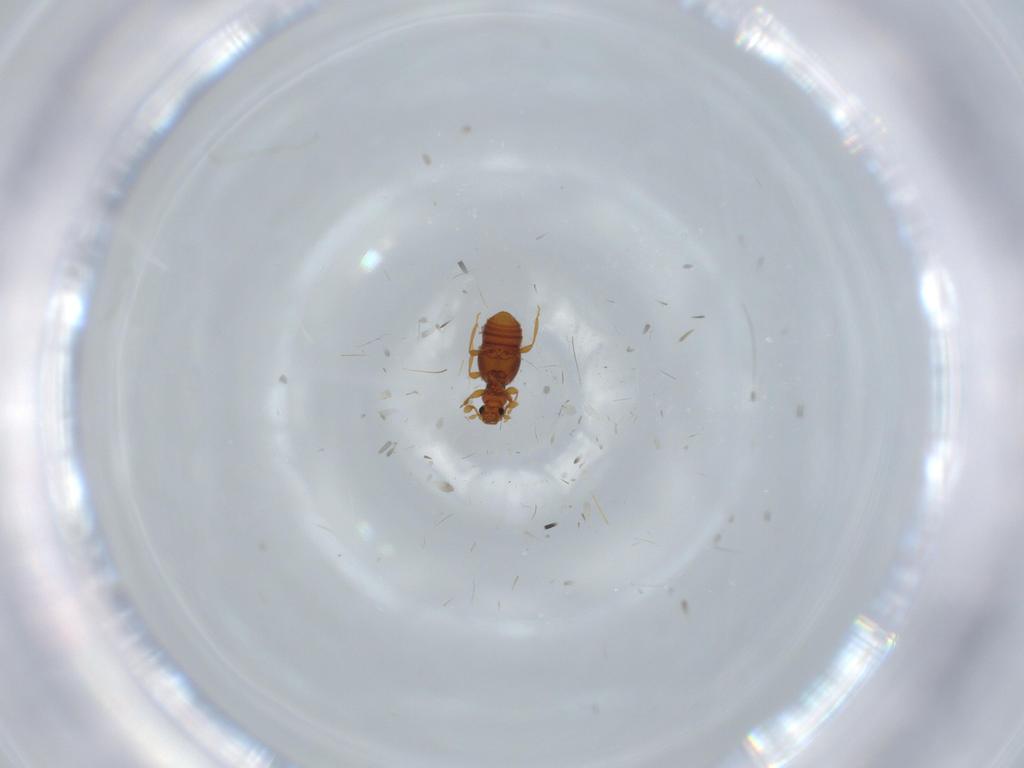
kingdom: Animalia
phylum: Arthropoda
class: Insecta
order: Coleoptera
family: Staphylinidae
